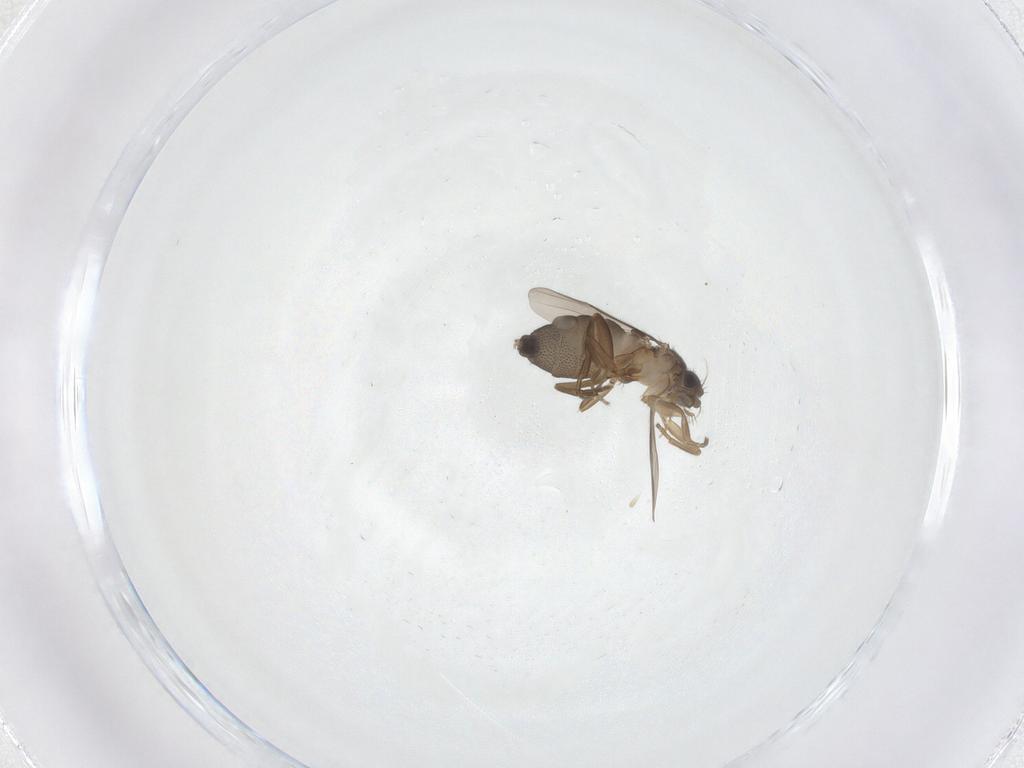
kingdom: Animalia
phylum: Arthropoda
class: Insecta
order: Diptera
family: Cecidomyiidae
